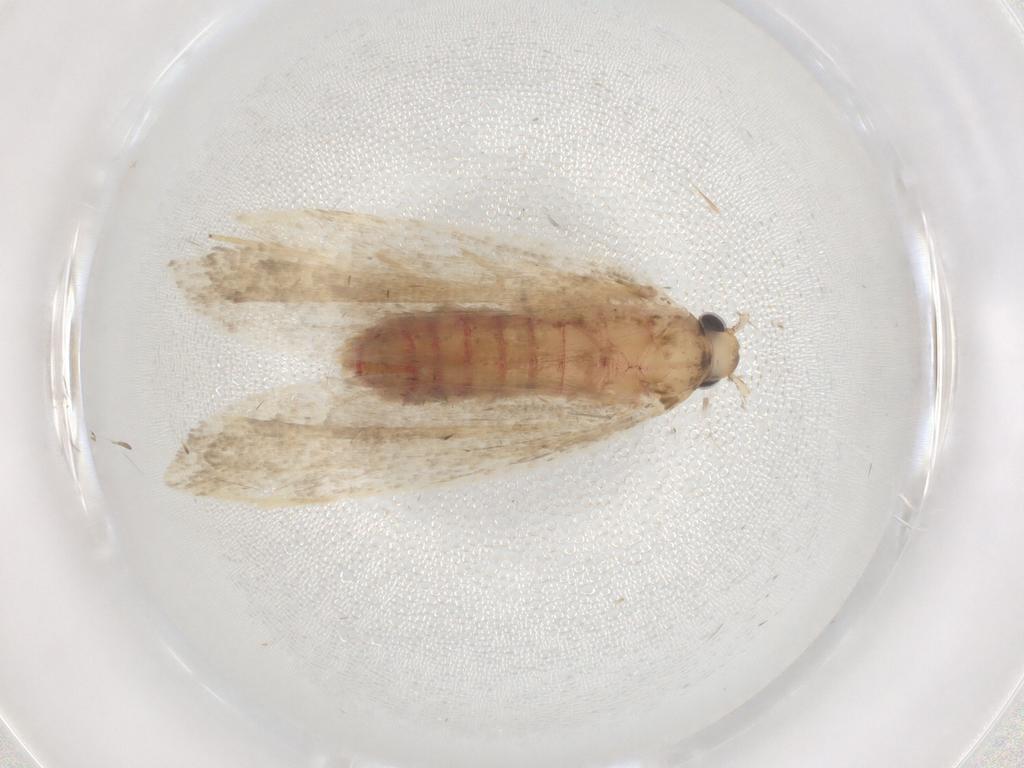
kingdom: Animalia
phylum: Arthropoda
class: Insecta
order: Lepidoptera
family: Lecithoceridae
